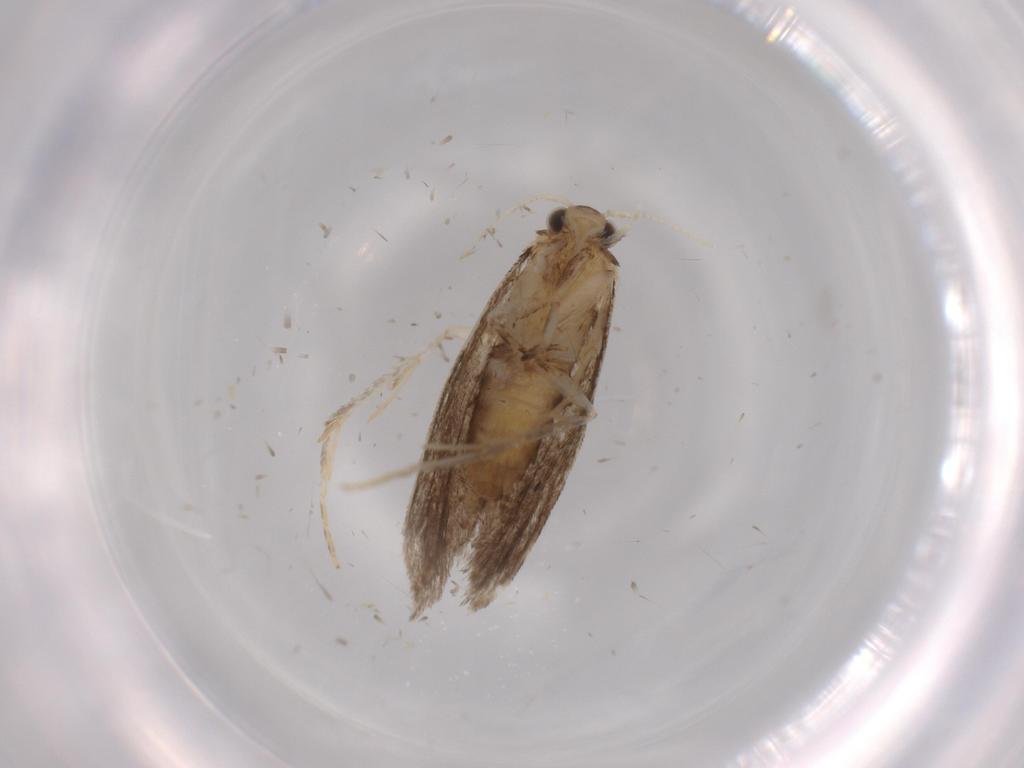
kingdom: Animalia
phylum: Arthropoda
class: Insecta
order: Lepidoptera
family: Tineidae
